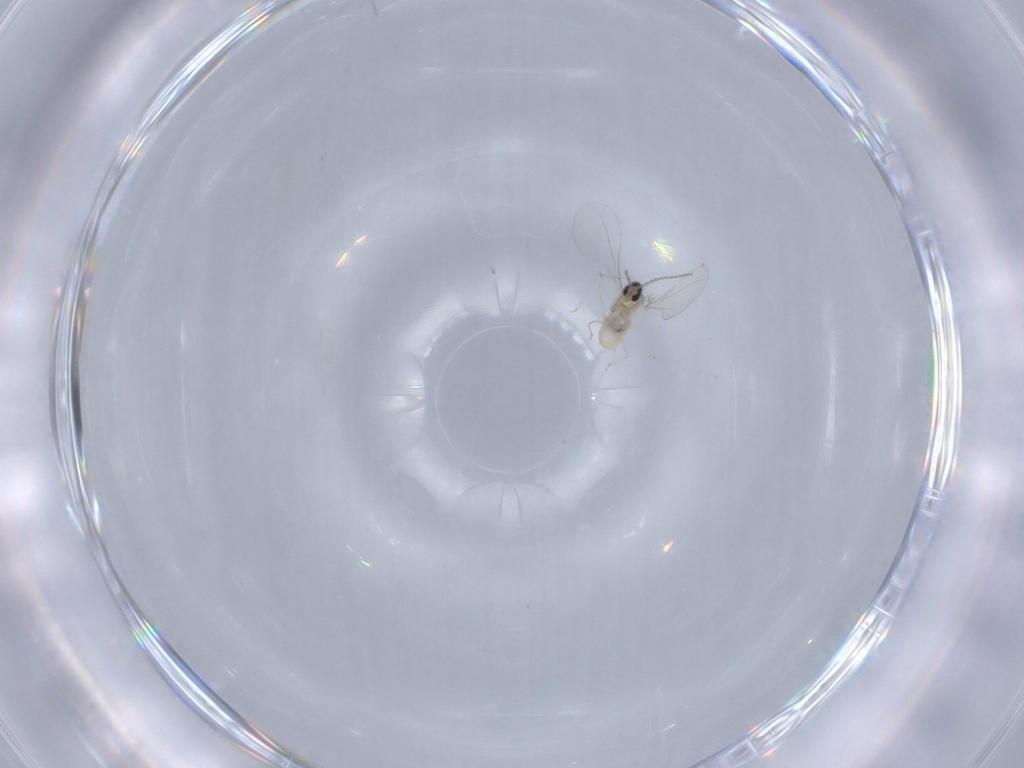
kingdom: Animalia
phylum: Arthropoda
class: Insecta
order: Diptera
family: Cecidomyiidae
